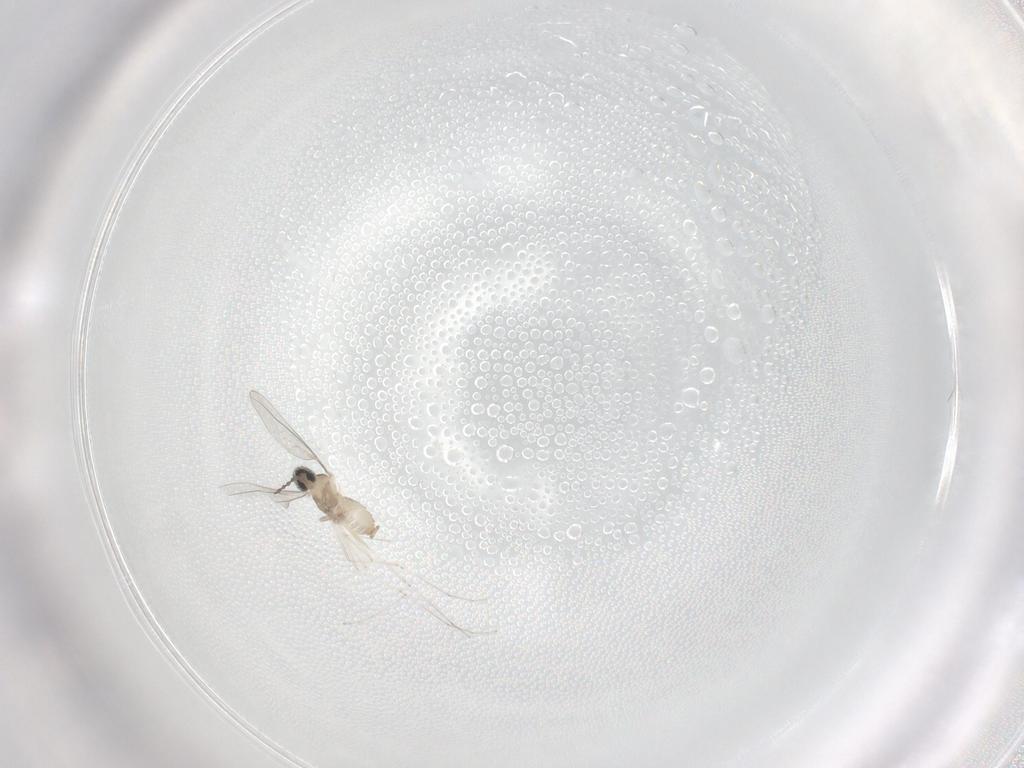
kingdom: Animalia
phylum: Arthropoda
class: Insecta
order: Diptera
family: Cecidomyiidae
